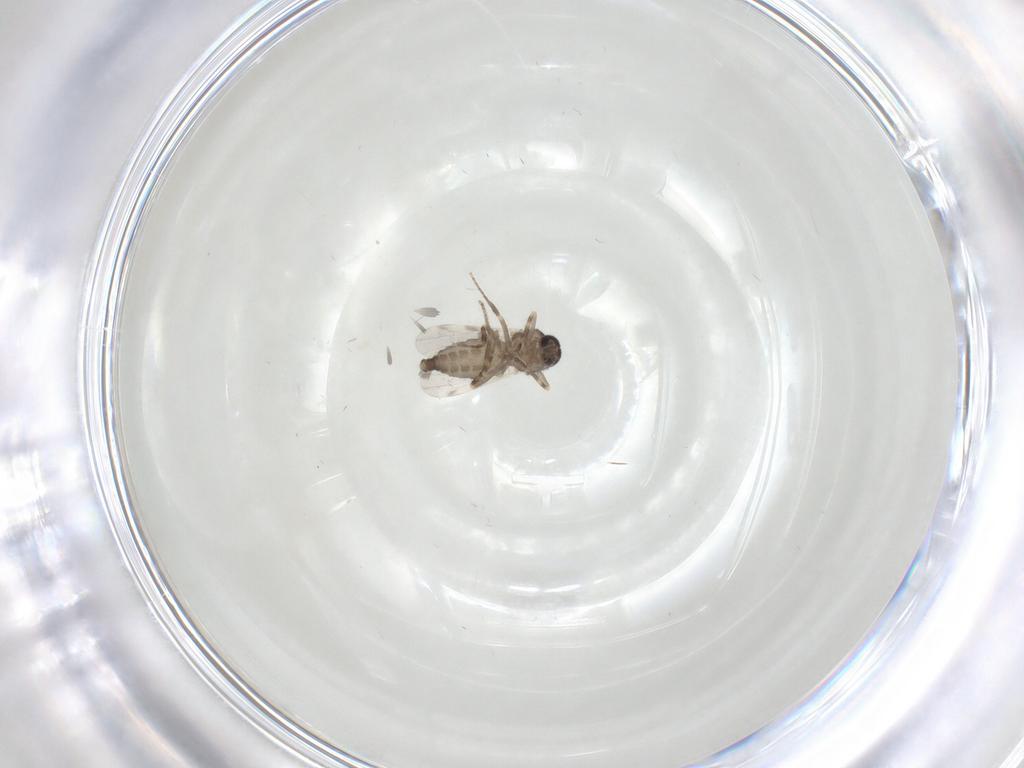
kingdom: Animalia
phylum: Arthropoda
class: Insecta
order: Diptera
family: Ceratopogonidae
